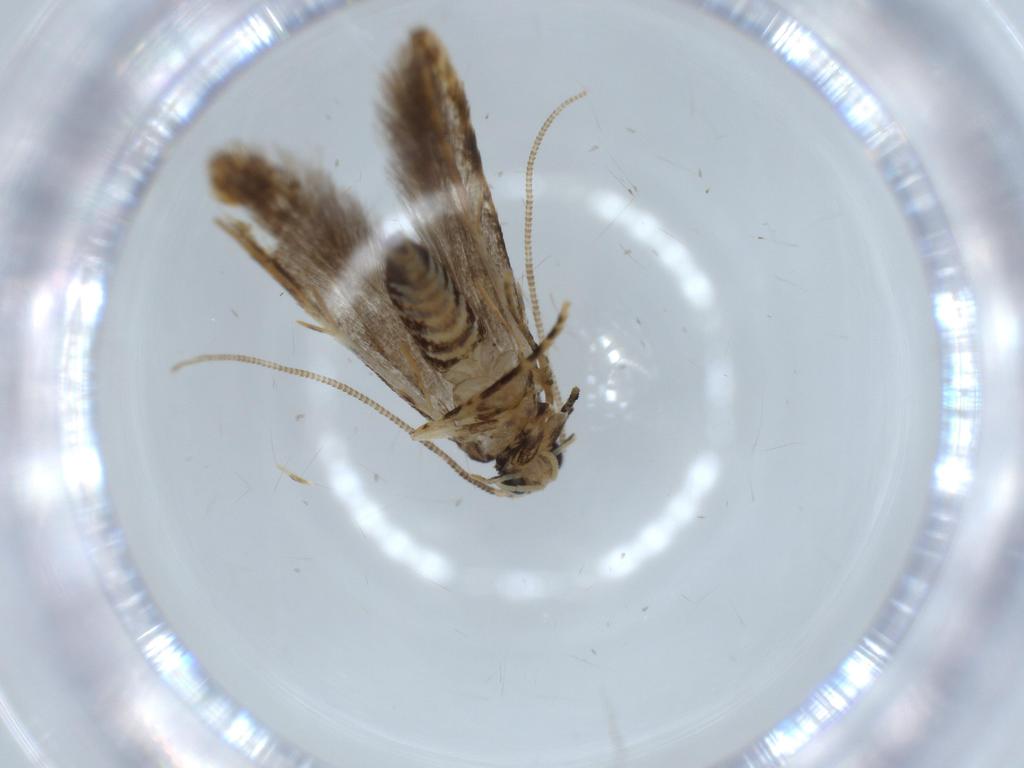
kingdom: Animalia
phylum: Arthropoda
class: Insecta
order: Lepidoptera
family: Tineidae
